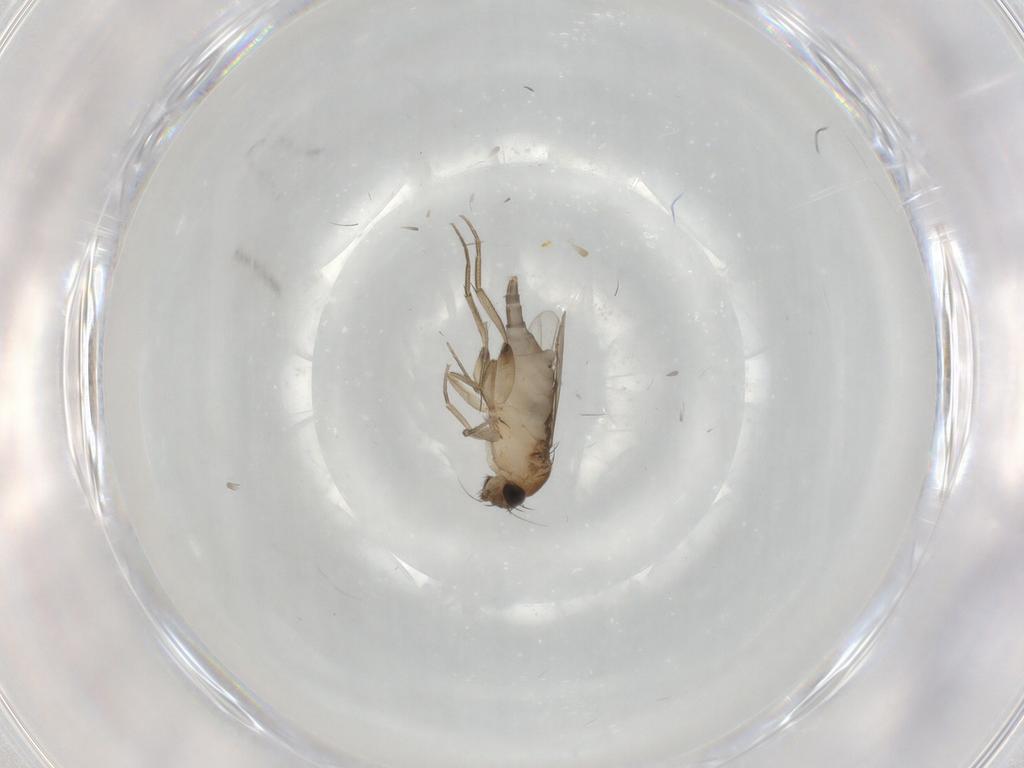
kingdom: Animalia
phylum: Arthropoda
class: Insecta
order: Diptera
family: Phoridae
